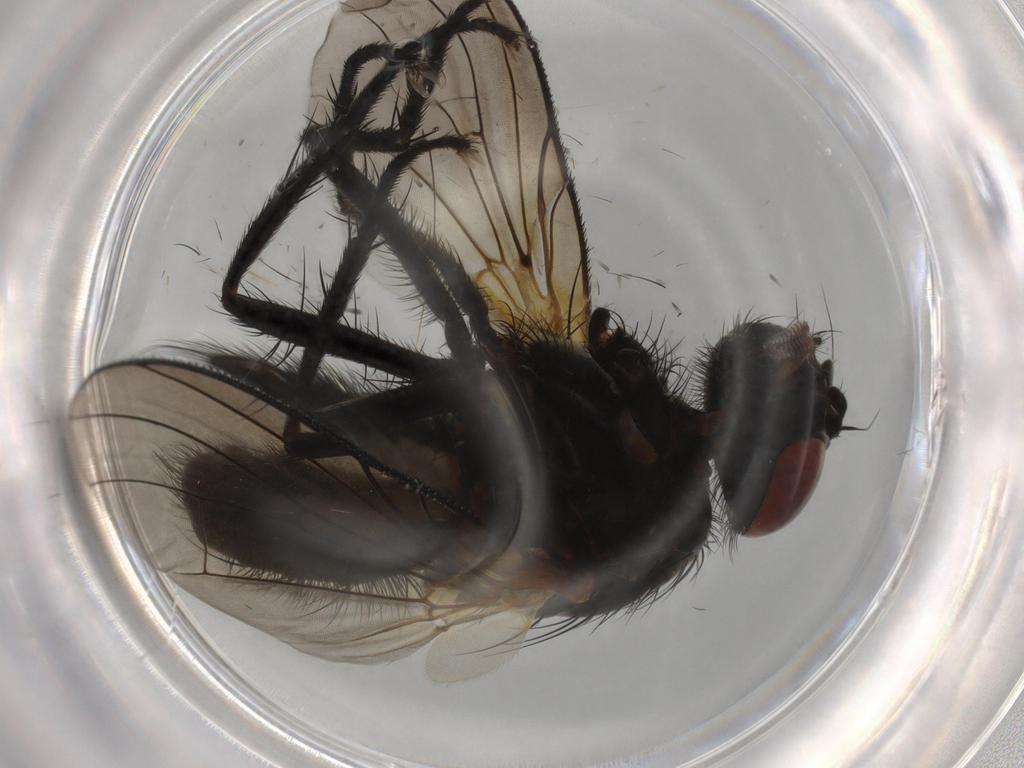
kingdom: Animalia
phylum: Arthropoda
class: Insecta
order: Diptera
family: Anthomyiidae
